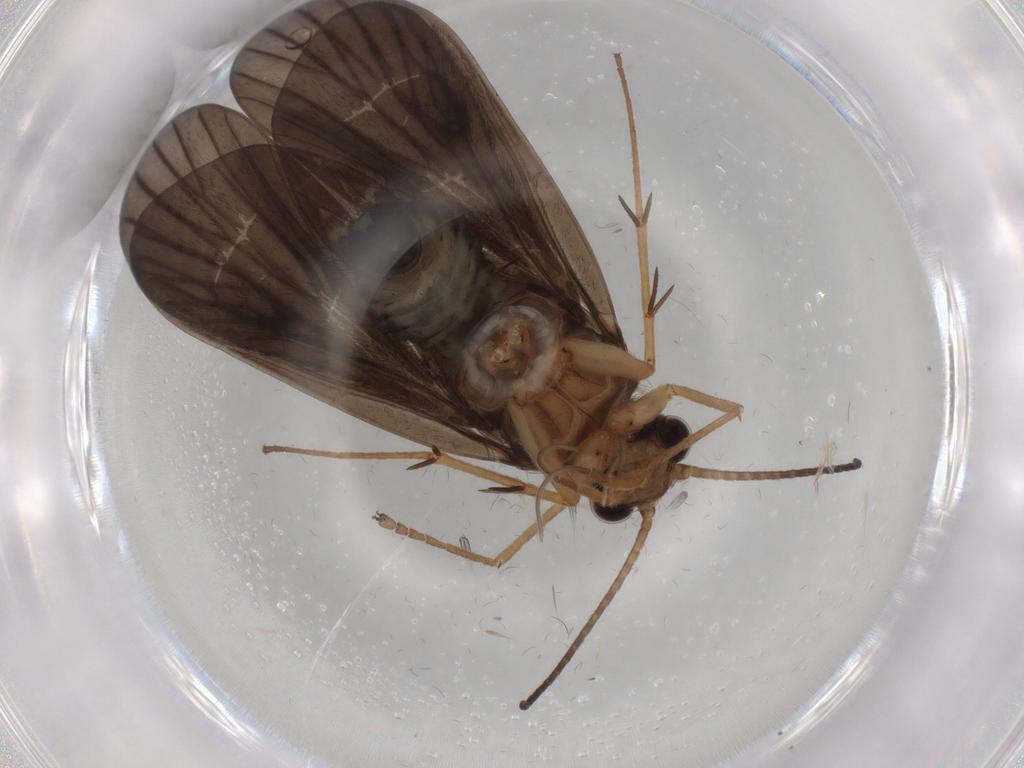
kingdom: Animalia
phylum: Arthropoda
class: Insecta
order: Trichoptera
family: Philopotamidae
